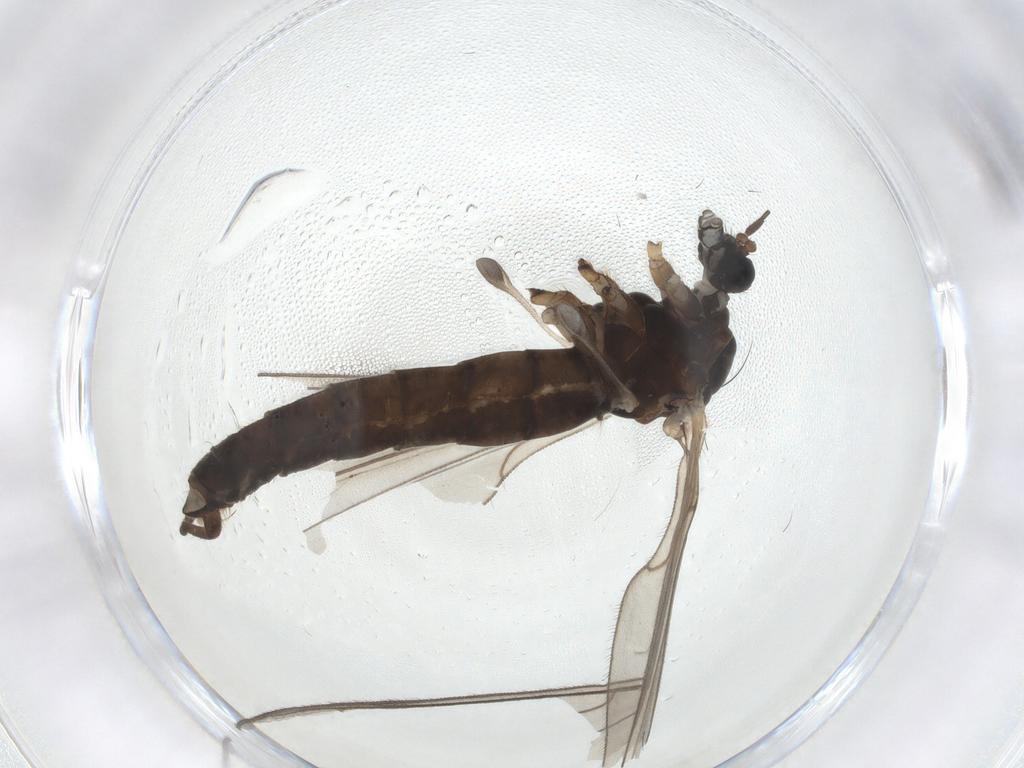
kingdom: Animalia
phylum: Arthropoda
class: Insecta
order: Diptera
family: Trichoceridae
